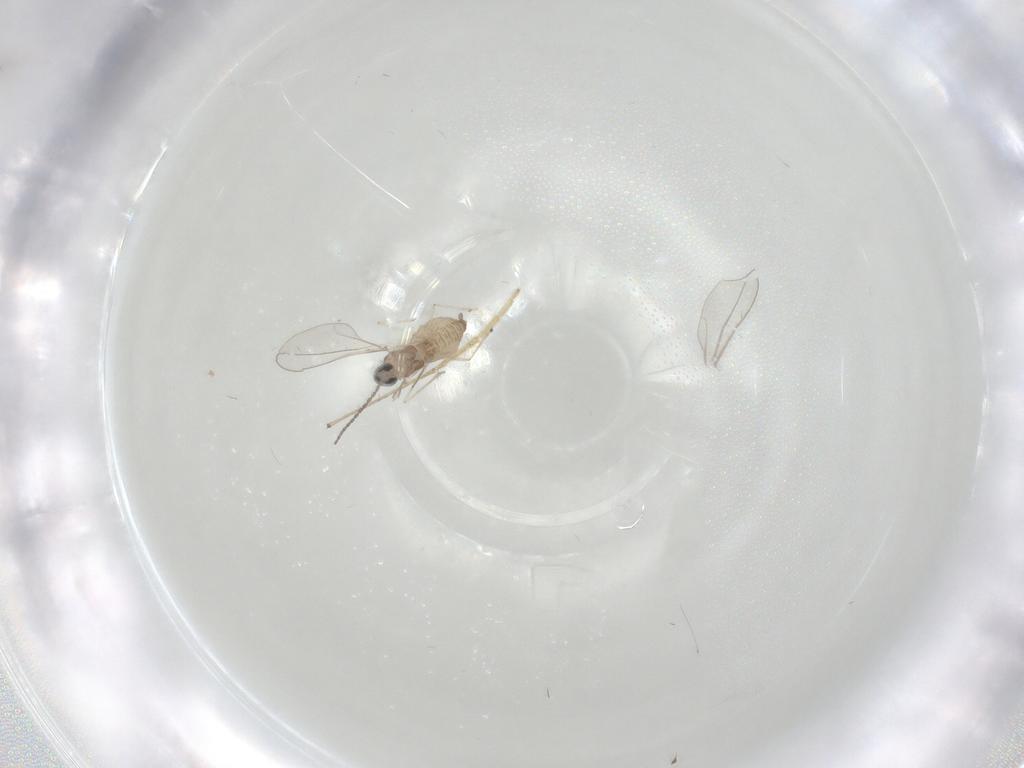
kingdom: Animalia
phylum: Arthropoda
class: Insecta
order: Diptera
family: Cecidomyiidae
